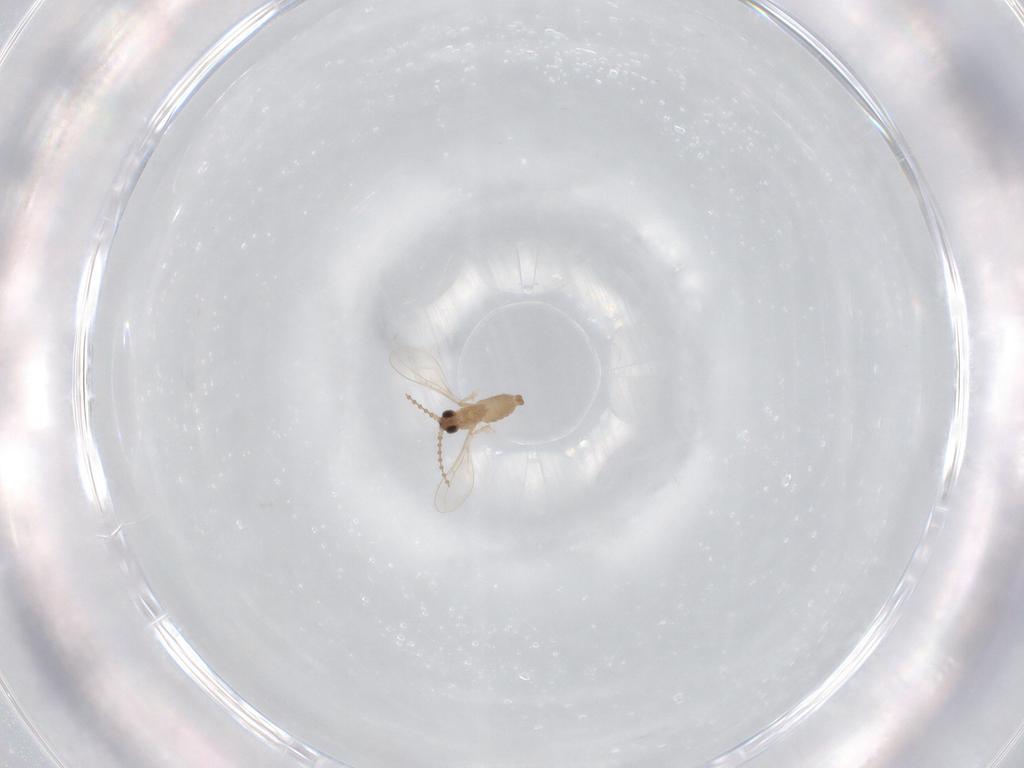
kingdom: Animalia
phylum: Arthropoda
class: Insecta
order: Diptera
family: Cecidomyiidae
